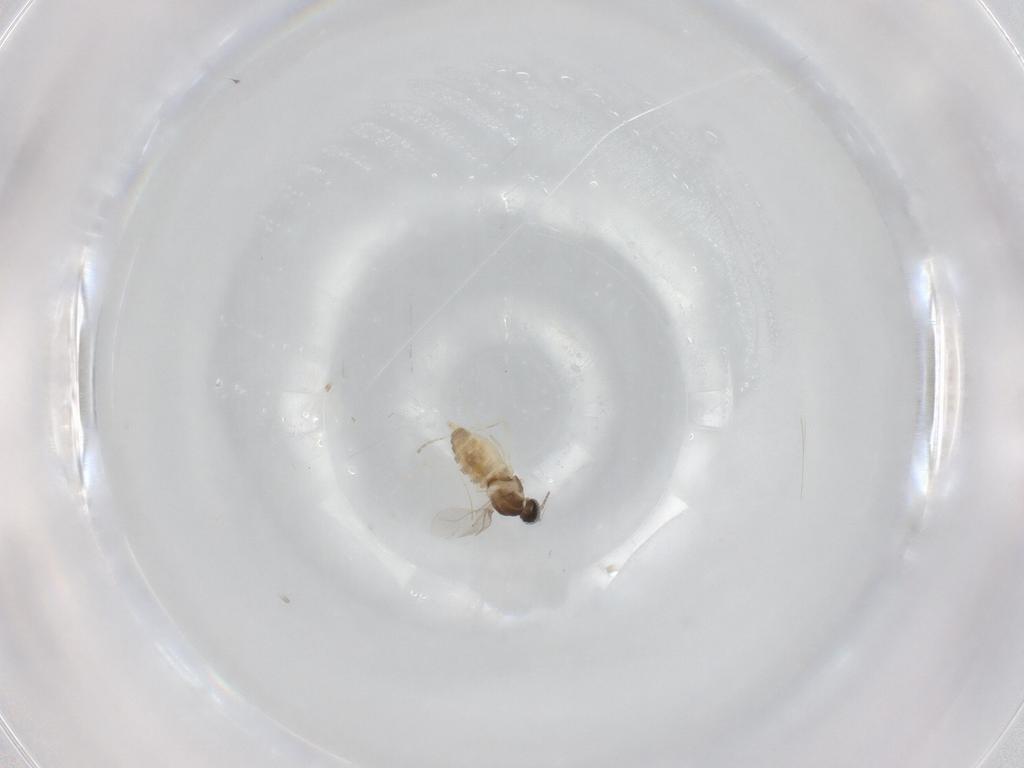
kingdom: Animalia
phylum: Arthropoda
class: Insecta
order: Diptera
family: Cecidomyiidae
